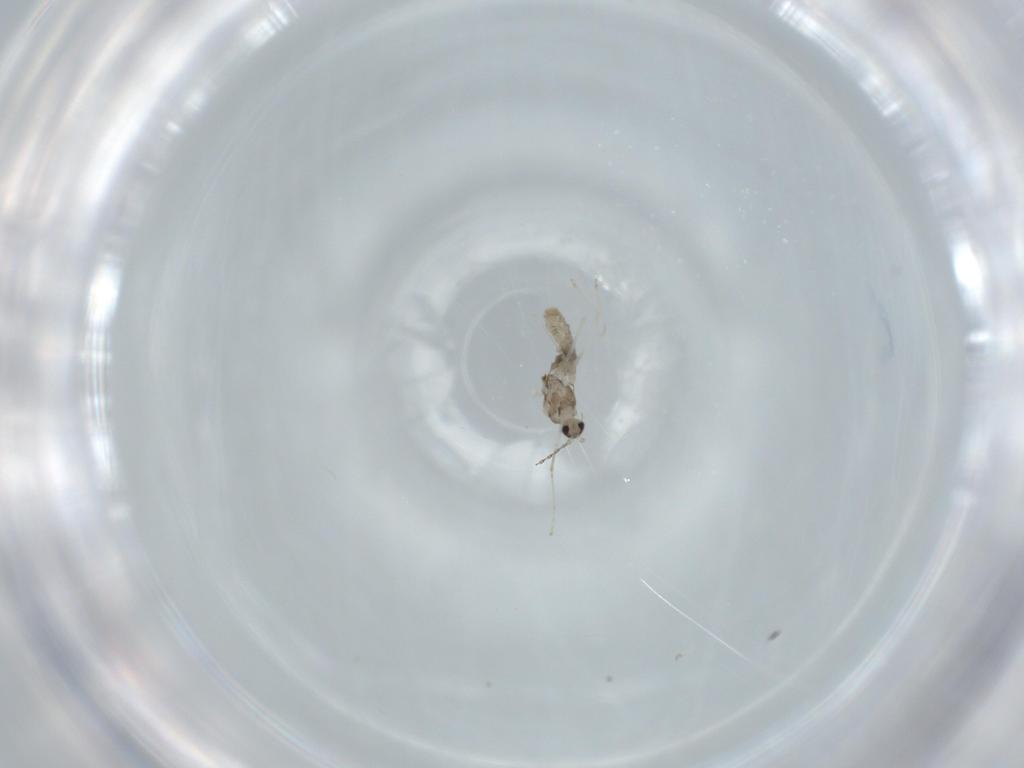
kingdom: Animalia
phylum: Arthropoda
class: Insecta
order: Diptera
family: Cecidomyiidae
